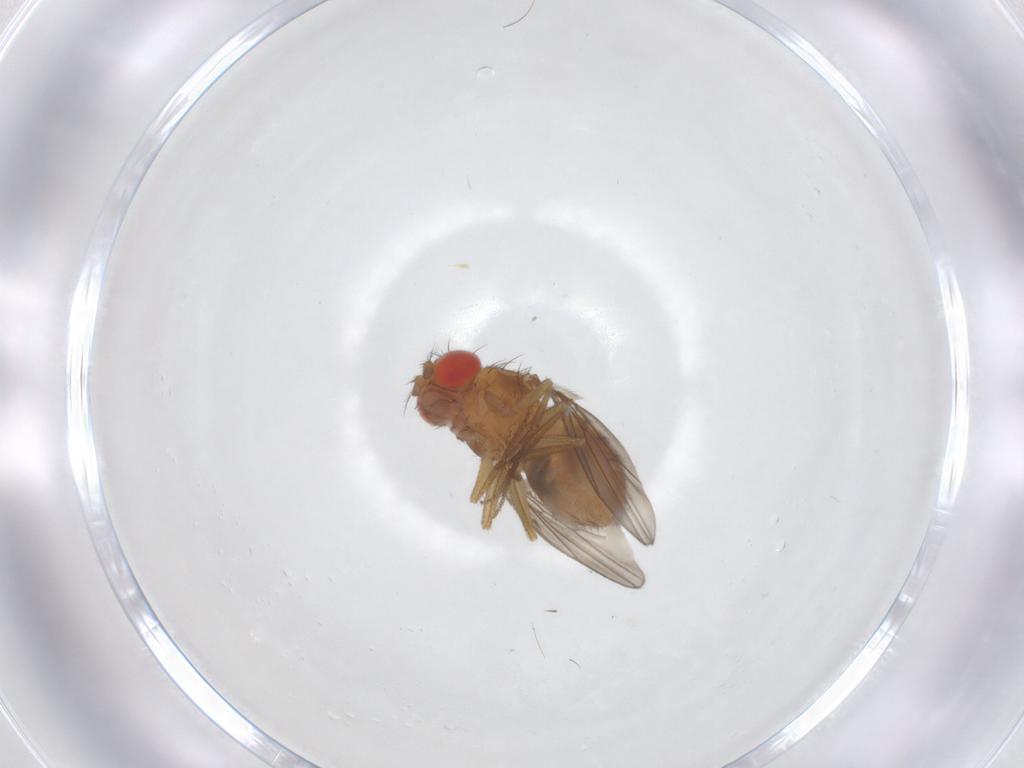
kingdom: Animalia
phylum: Arthropoda
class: Insecta
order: Diptera
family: Drosophilidae
